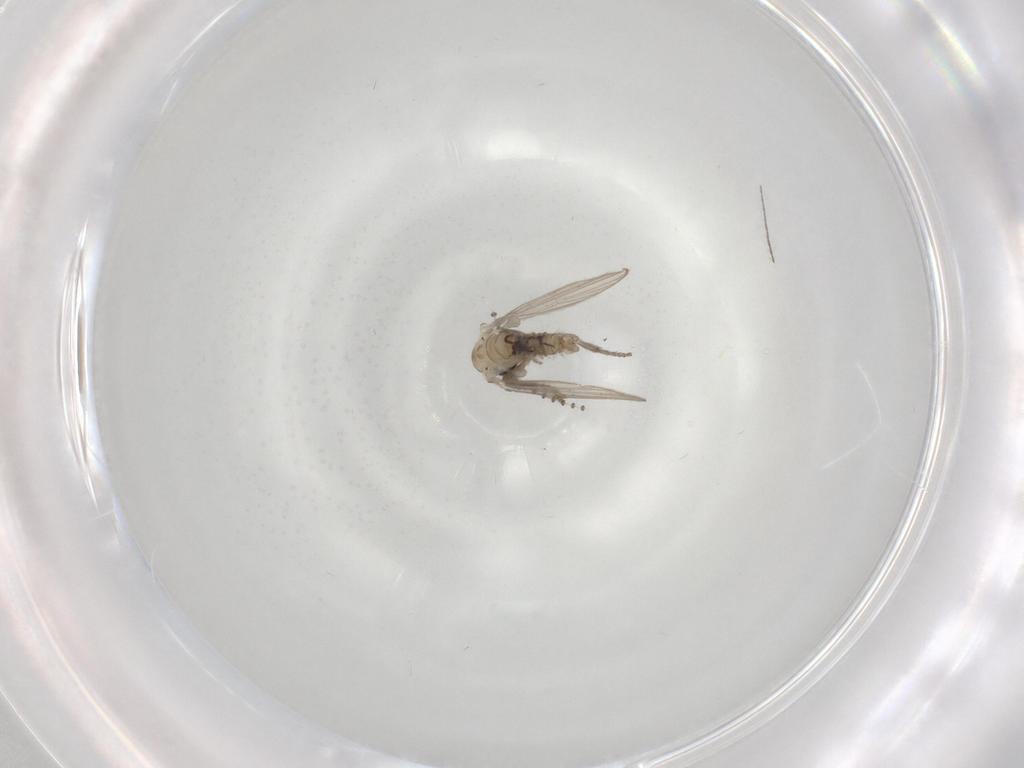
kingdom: Animalia
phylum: Arthropoda
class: Insecta
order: Diptera
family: Psychodidae
